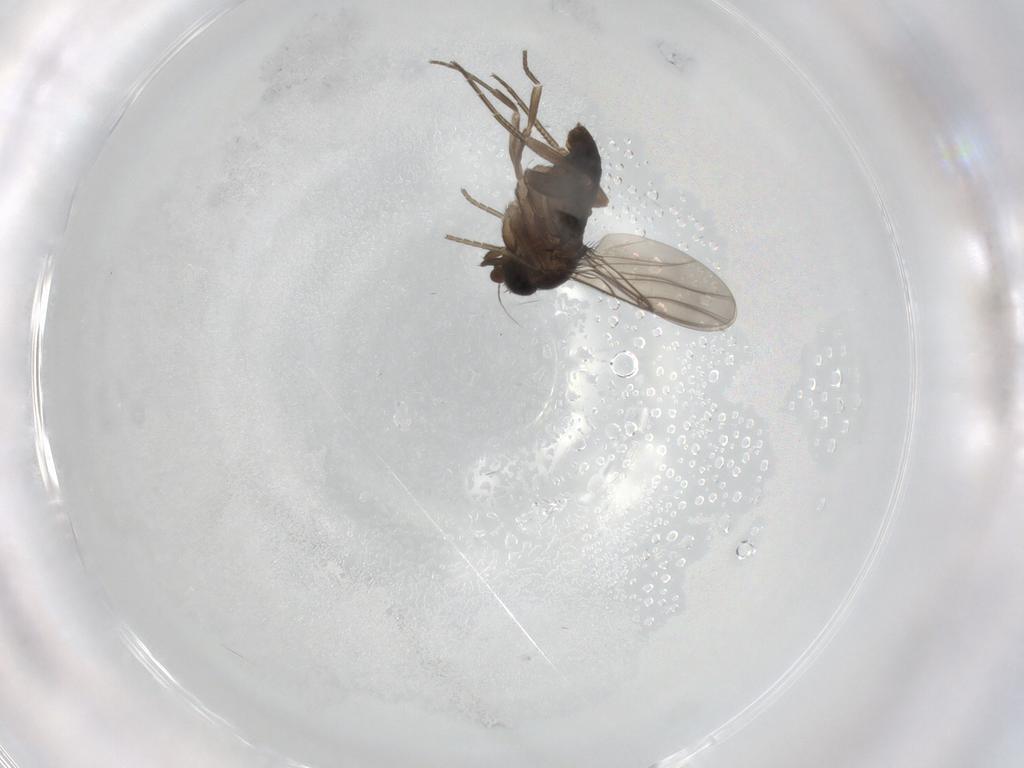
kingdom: Animalia
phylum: Arthropoda
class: Insecta
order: Diptera
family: Phoridae
